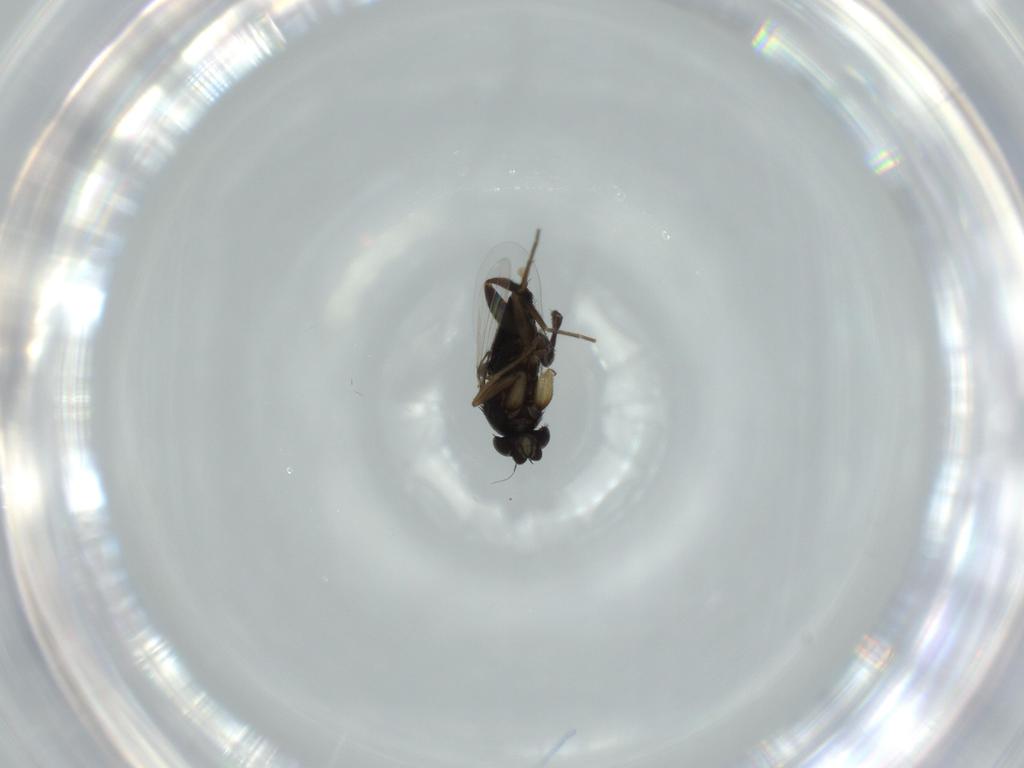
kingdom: Animalia
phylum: Arthropoda
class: Insecta
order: Diptera
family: Phoridae
